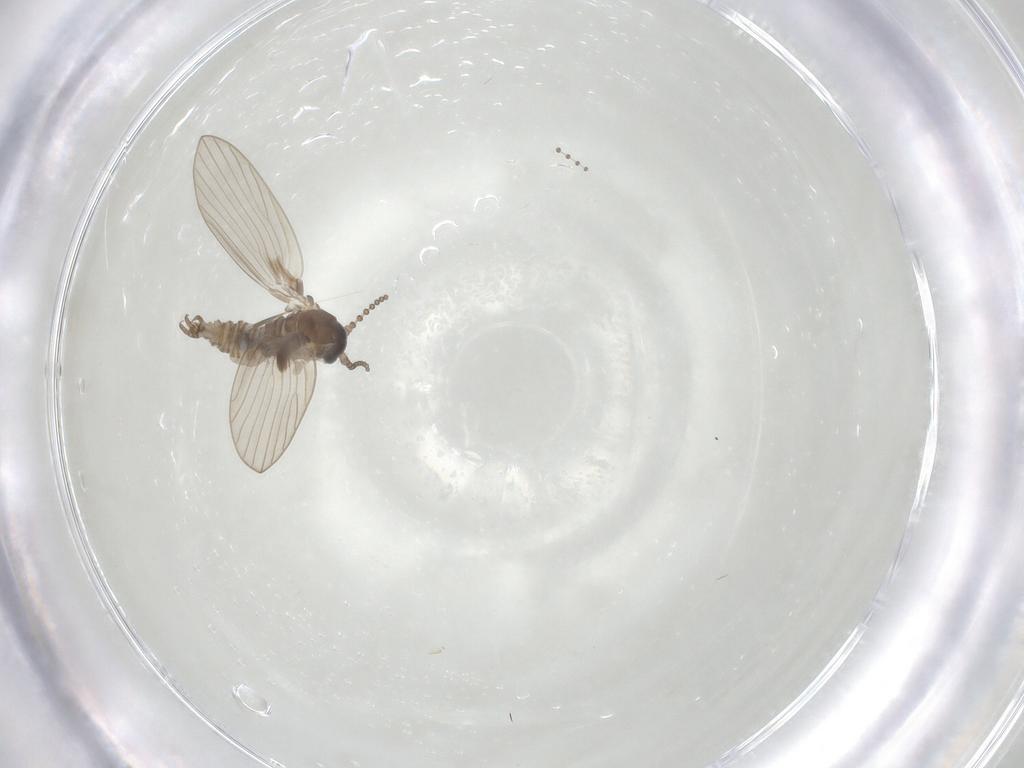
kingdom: Animalia
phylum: Arthropoda
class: Insecta
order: Diptera
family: Psychodidae
